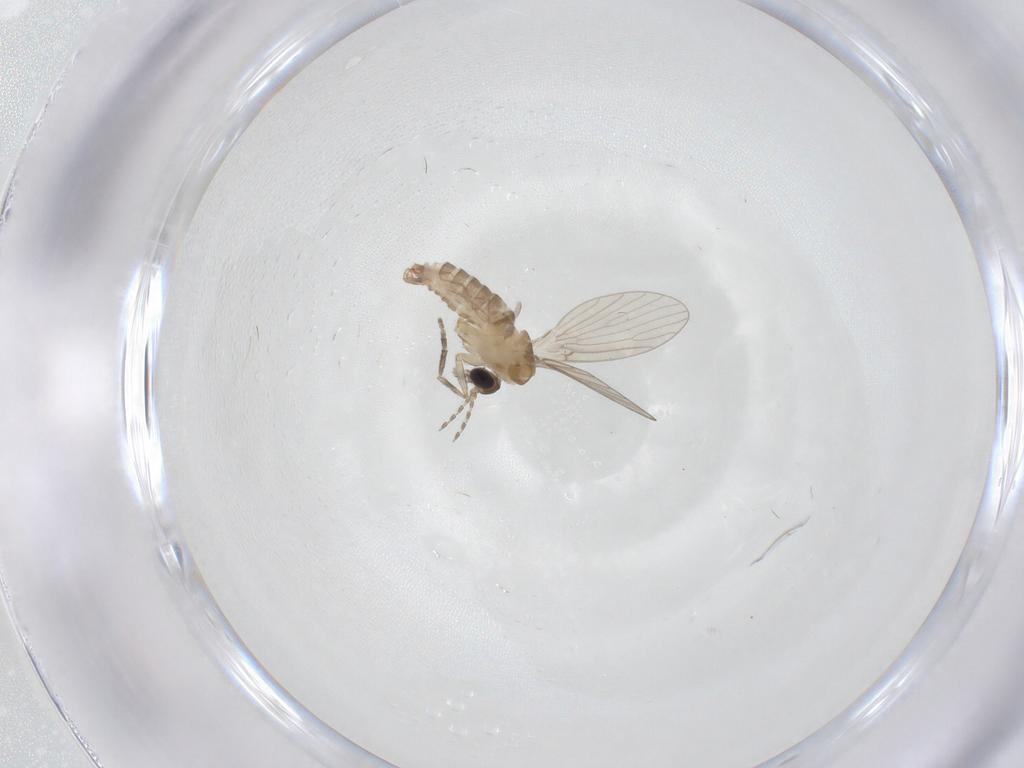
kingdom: Animalia
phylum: Arthropoda
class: Insecta
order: Diptera
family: Psychodidae
